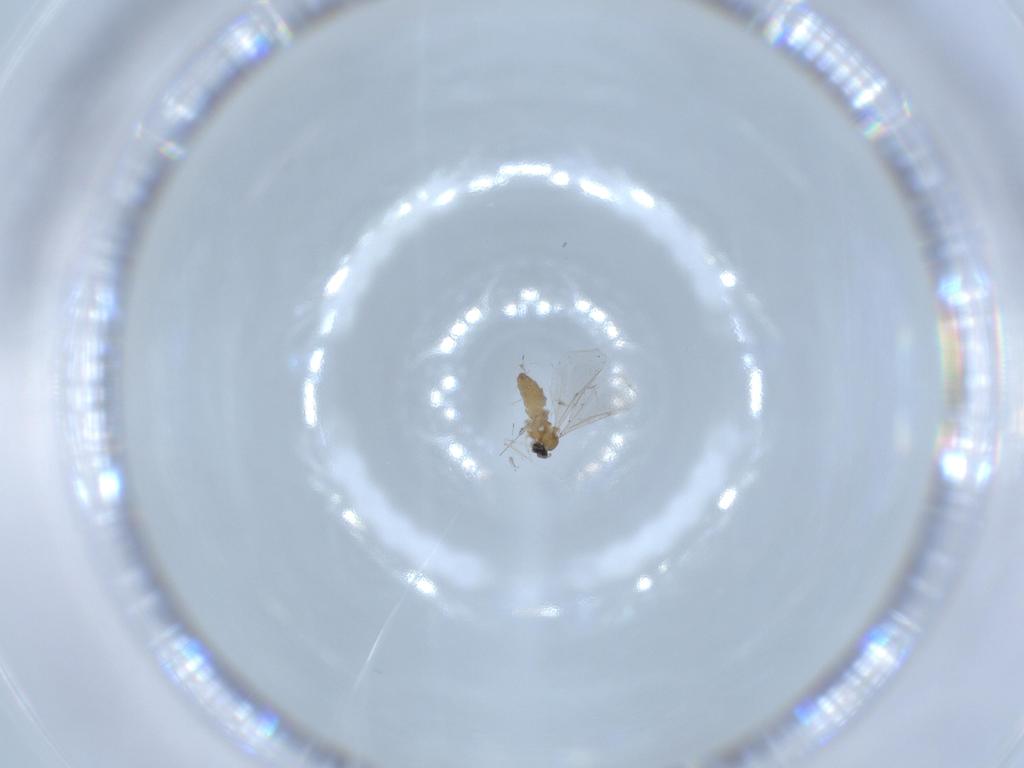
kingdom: Animalia
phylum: Arthropoda
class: Insecta
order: Diptera
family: Cecidomyiidae
